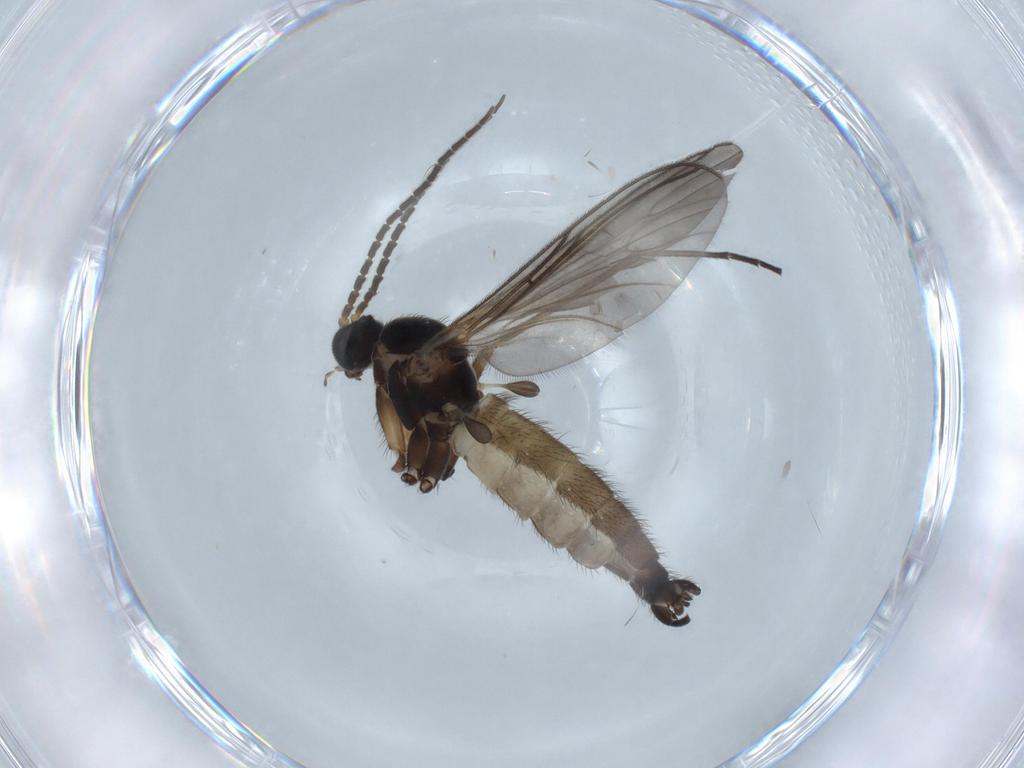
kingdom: Animalia
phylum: Arthropoda
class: Insecta
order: Diptera
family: Sciaridae
